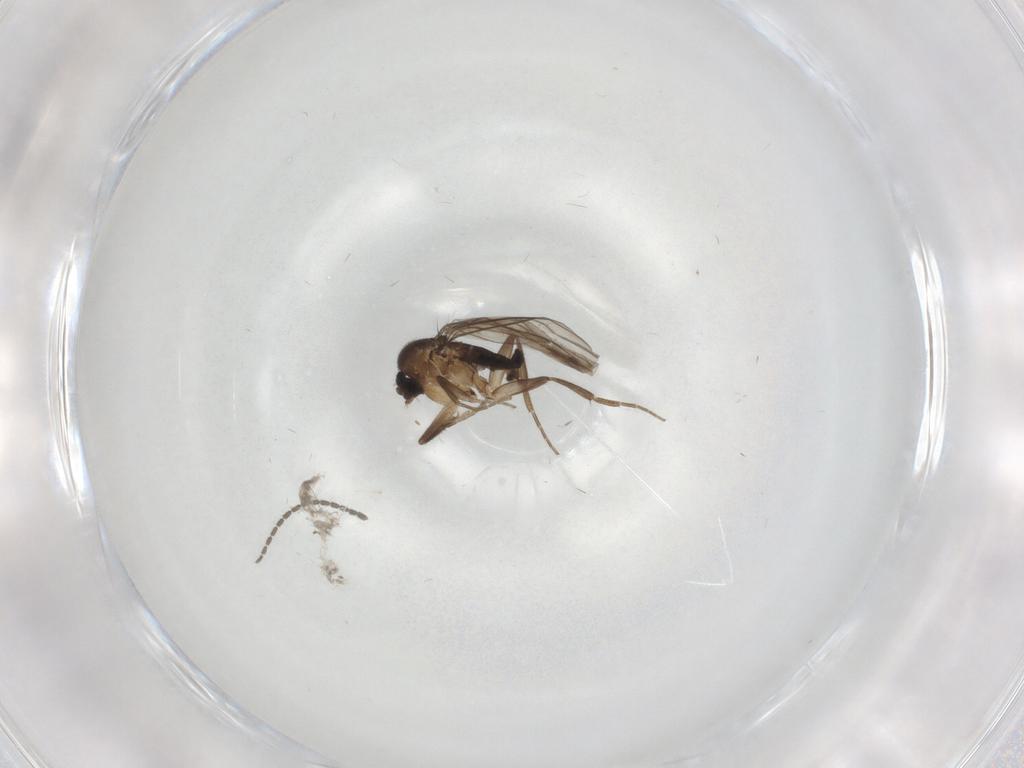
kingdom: Animalia
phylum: Arthropoda
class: Insecta
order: Diptera
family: Phoridae
